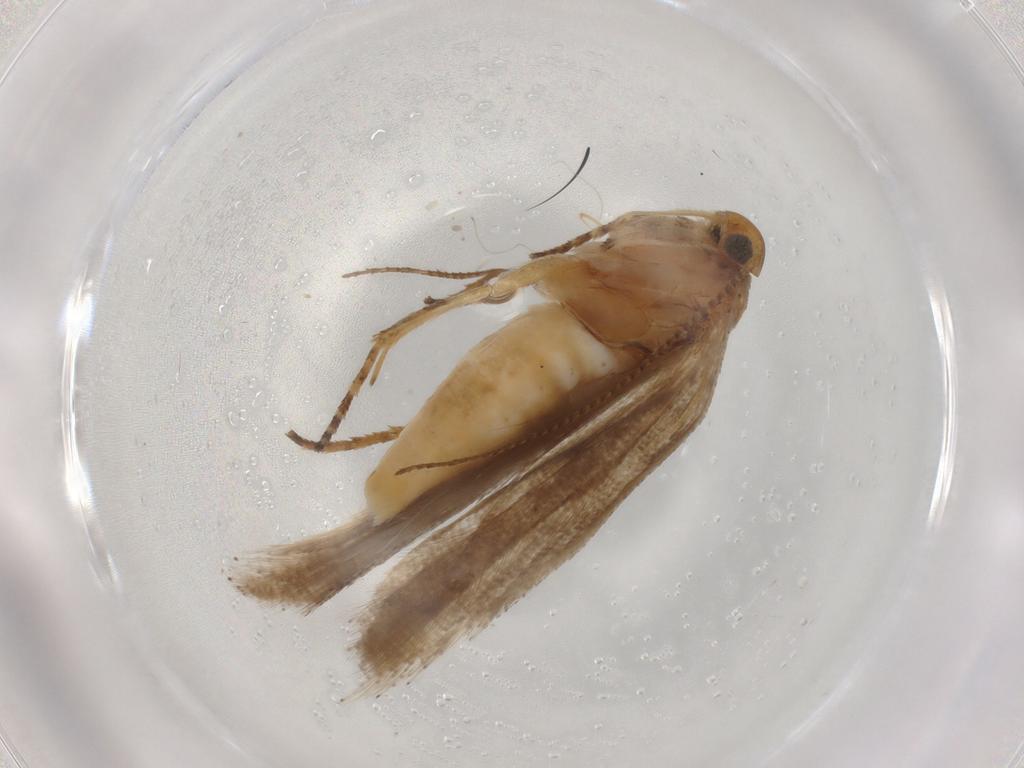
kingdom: Animalia
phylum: Arthropoda
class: Insecta
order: Lepidoptera
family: Gelechiidae
